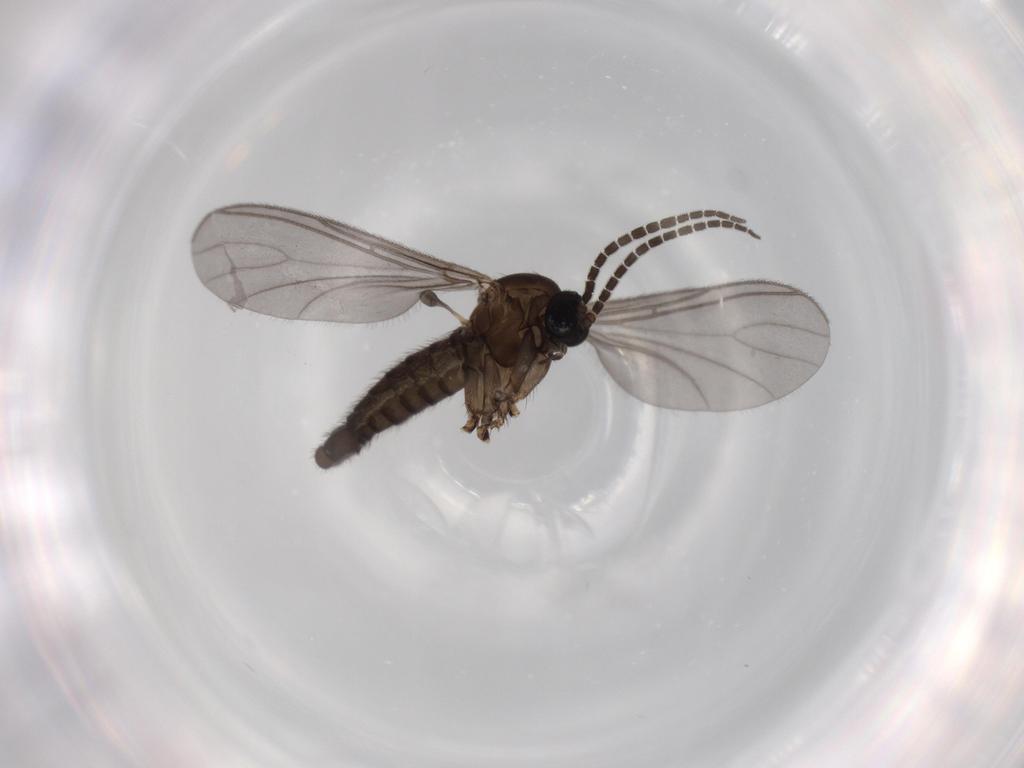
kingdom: Animalia
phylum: Arthropoda
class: Insecta
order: Diptera
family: Sciaridae
